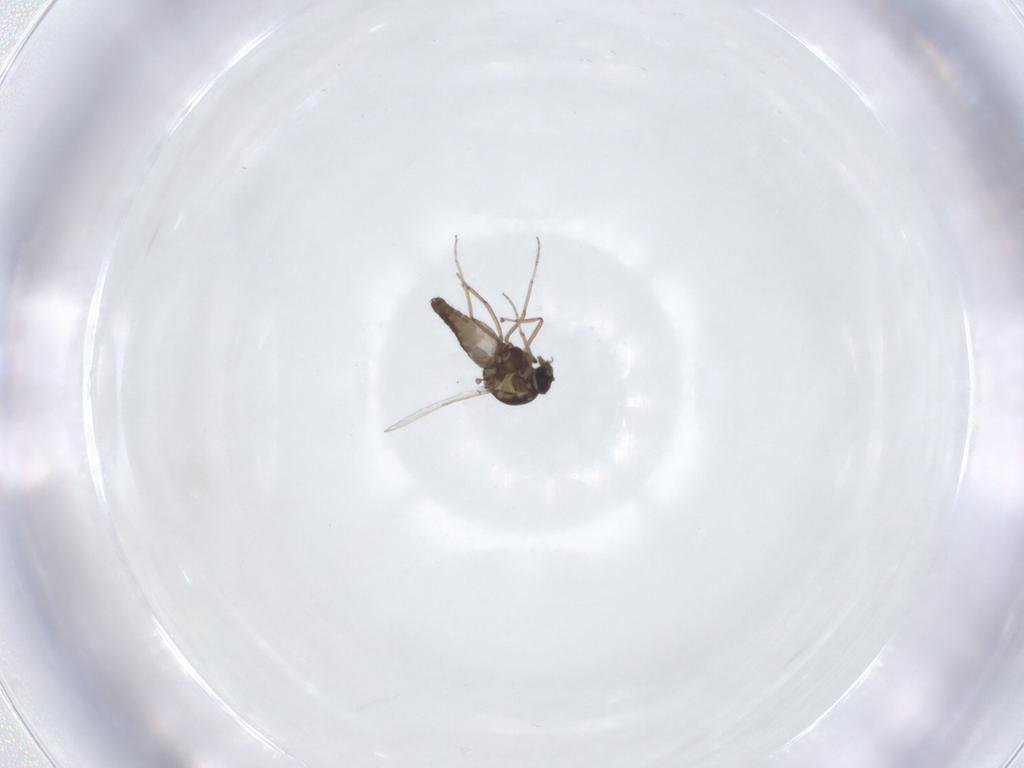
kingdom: Animalia
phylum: Arthropoda
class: Insecta
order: Diptera
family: Ceratopogonidae
